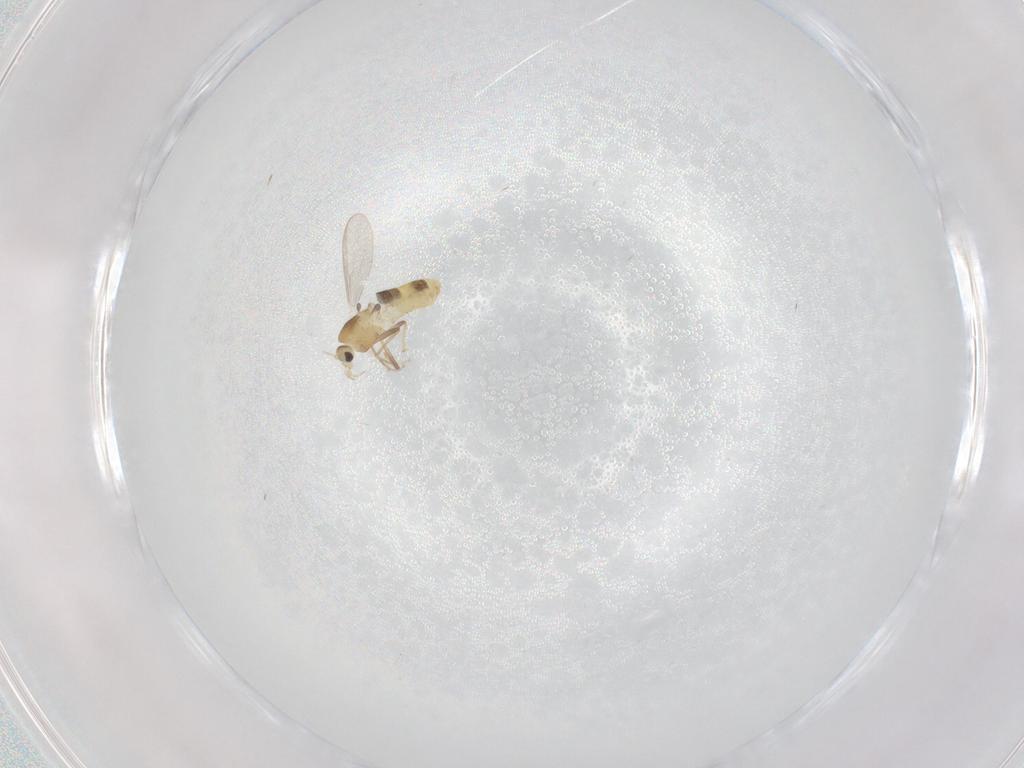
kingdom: Animalia
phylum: Arthropoda
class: Insecta
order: Diptera
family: Chironomidae
